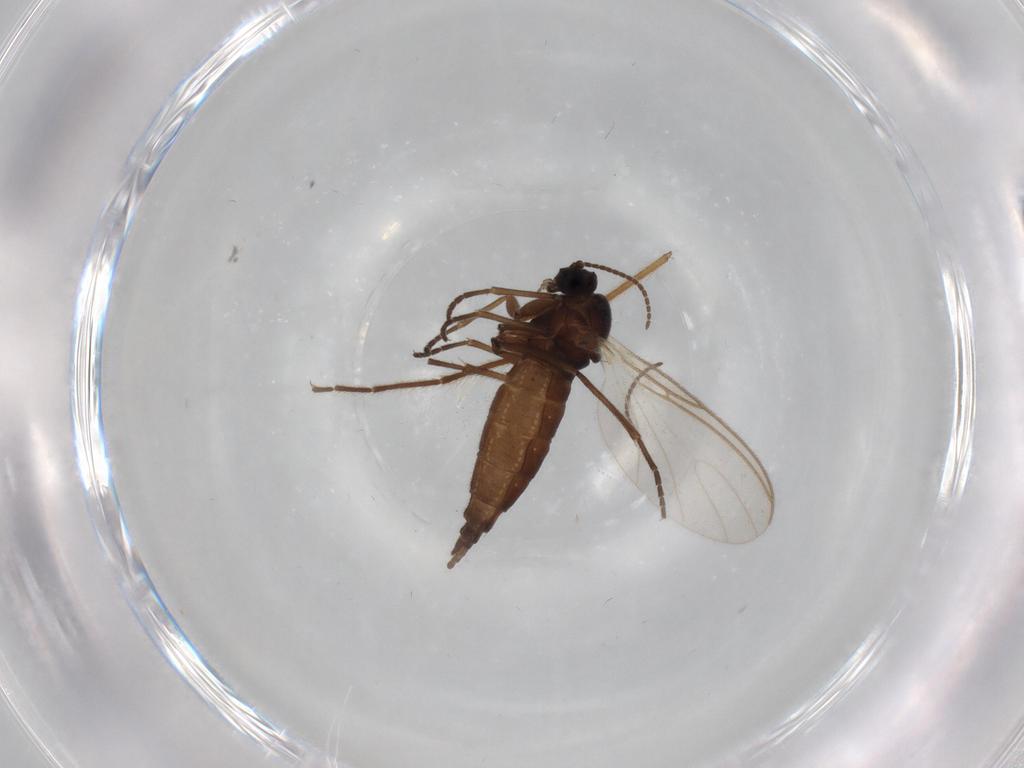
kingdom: Animalia
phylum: Arthropoda
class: Insecta
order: Diptera
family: Sciaridae
